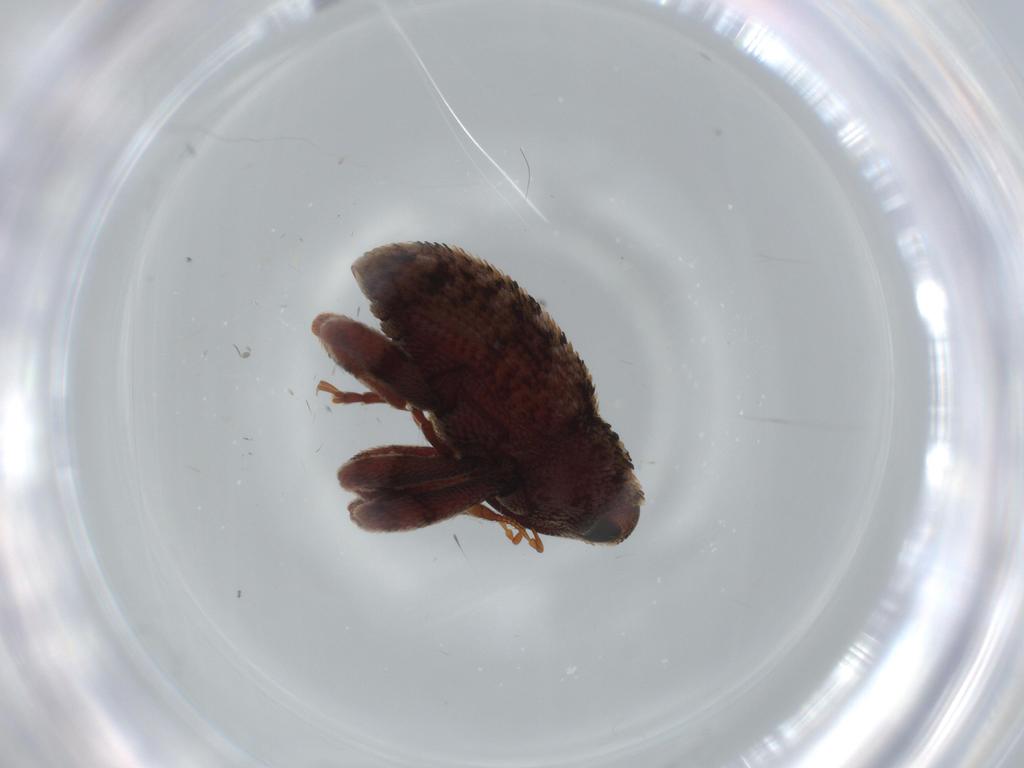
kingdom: Animalia
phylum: Arthropoda
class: Insecta
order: Coleoptera
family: Curculionidae
